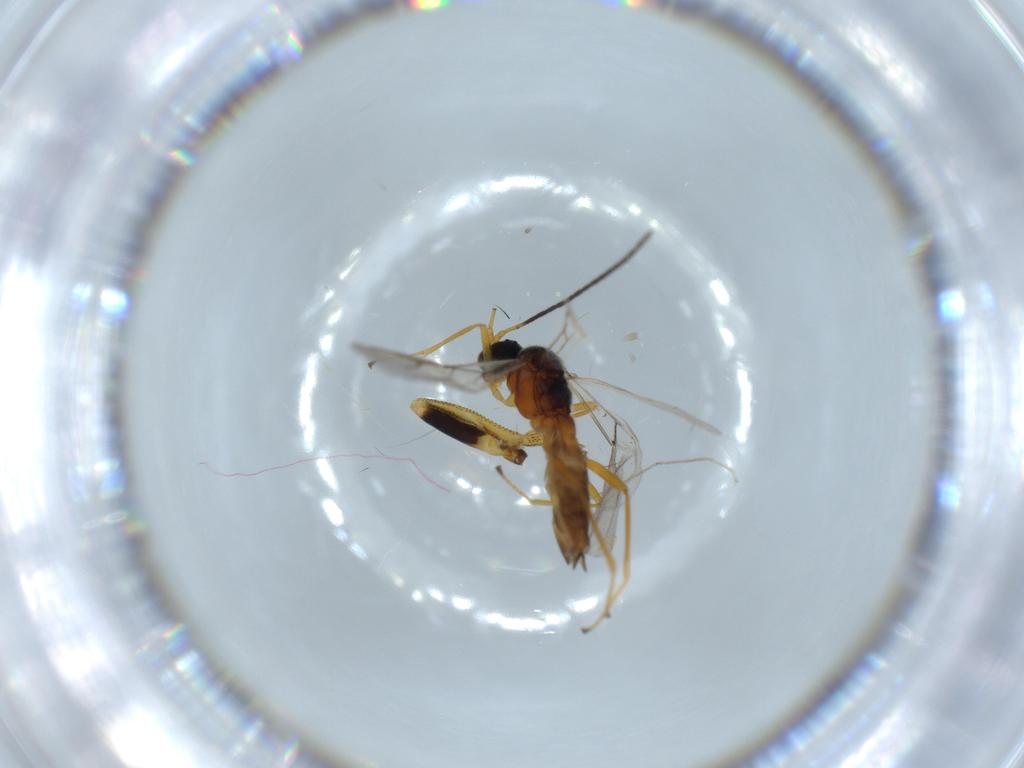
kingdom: Animalia
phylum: Arthropoda
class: Insecta
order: Hymenoptera
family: Braconidae
